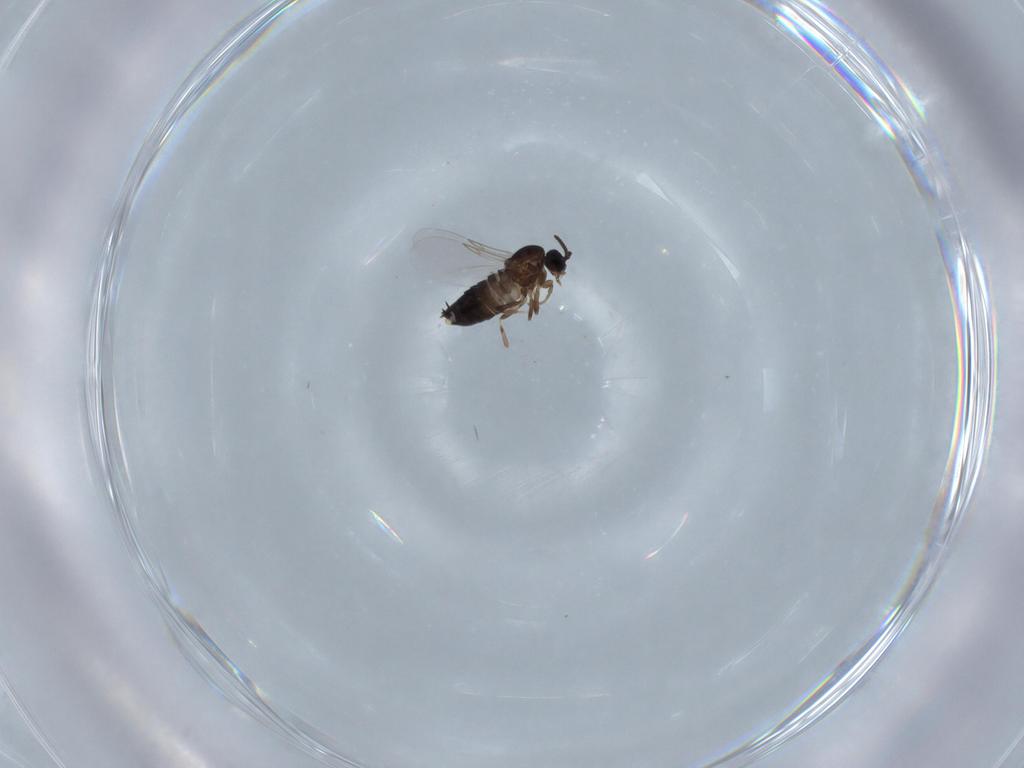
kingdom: Animalia
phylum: Arthropoda
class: Insecta
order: Diptera
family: Scatopsidae
